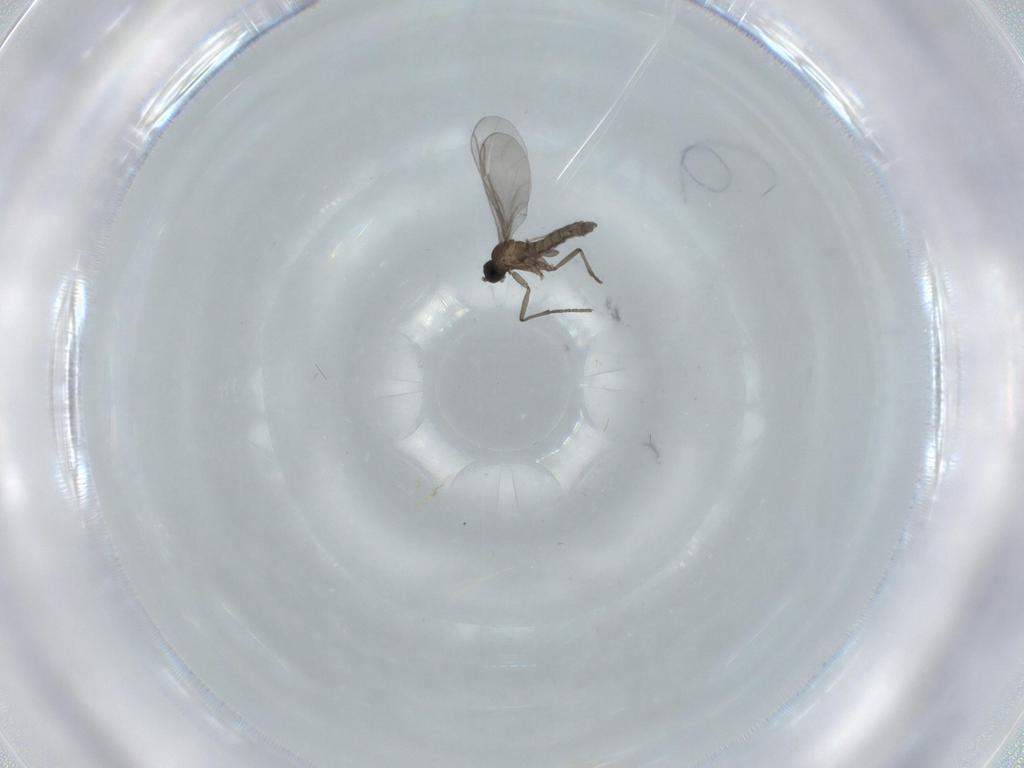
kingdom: Animalia
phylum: Arthropoda
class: Insecta
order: Diptera
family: Sciaridae
